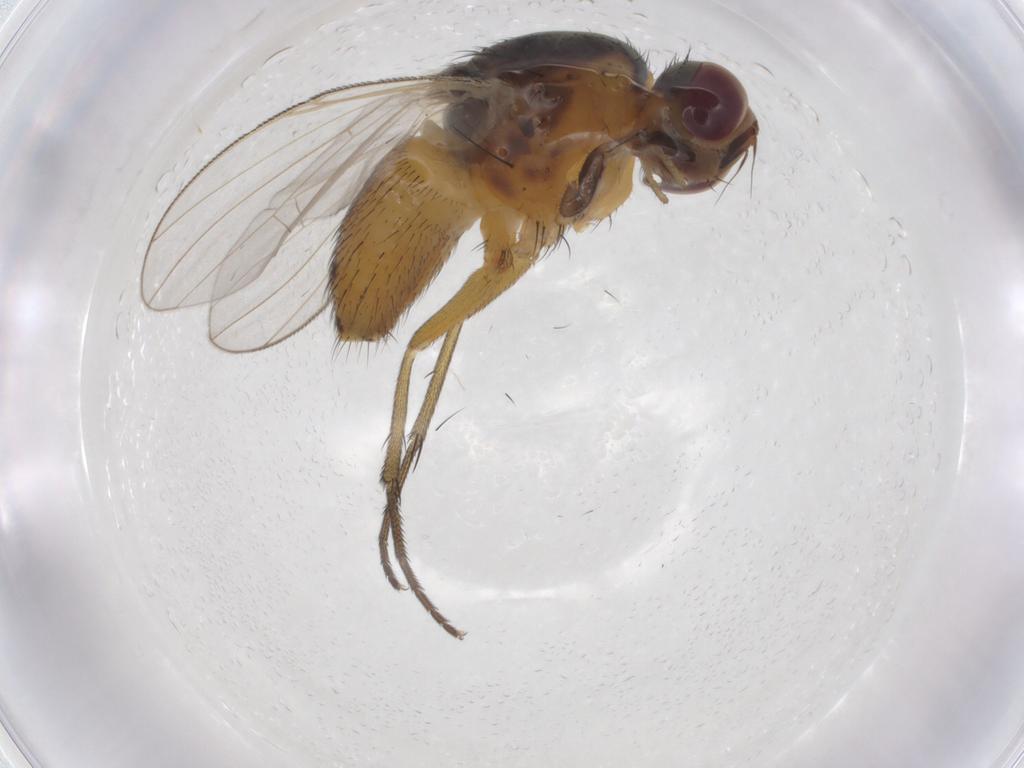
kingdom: Animalia
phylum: Arthropoda
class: Insecta
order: Diptera
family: Muscidae
